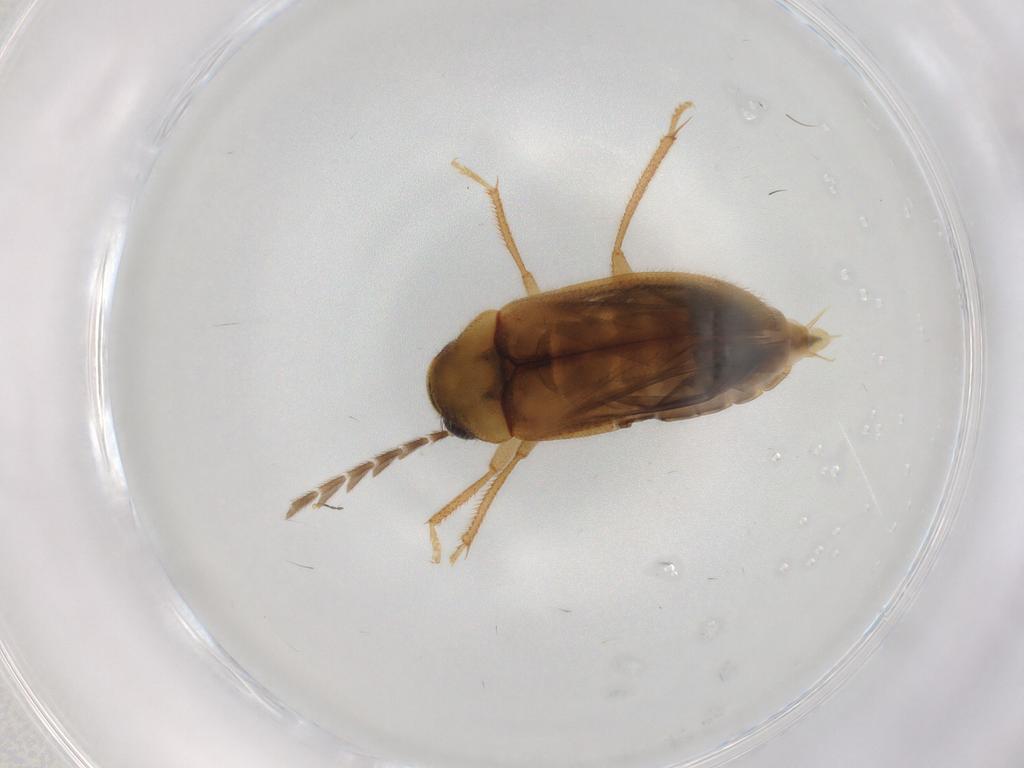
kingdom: Animalia
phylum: Arthropoda
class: Insecta
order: Coleoptera
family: Ptilodactylidae
